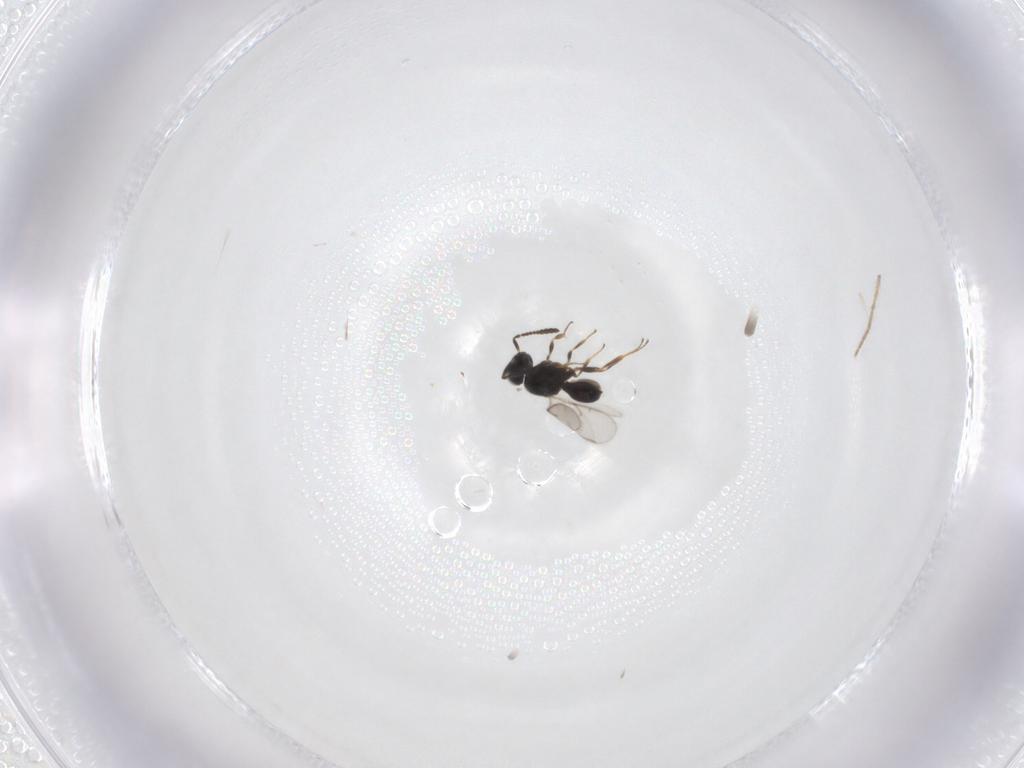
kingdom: Animalia
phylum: Arthropoda
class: Insecta
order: Hymenoptera
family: Scelionidae
